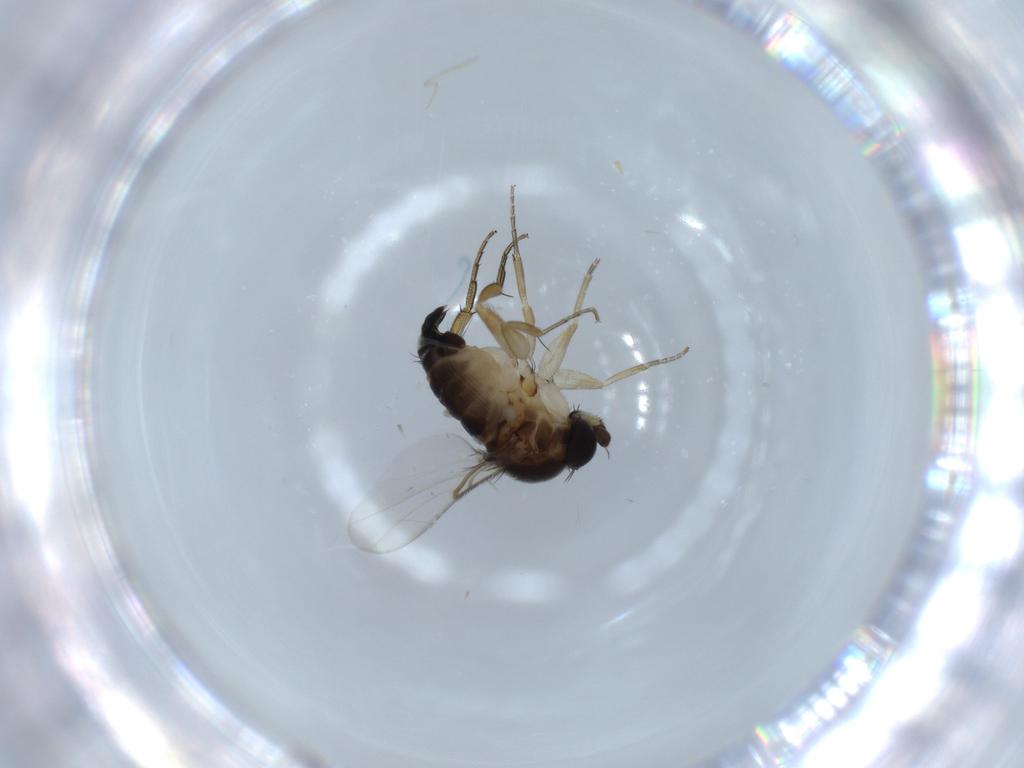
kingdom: Animalia
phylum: Arthropoda
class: Insecta
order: Diptera
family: Phoridae
